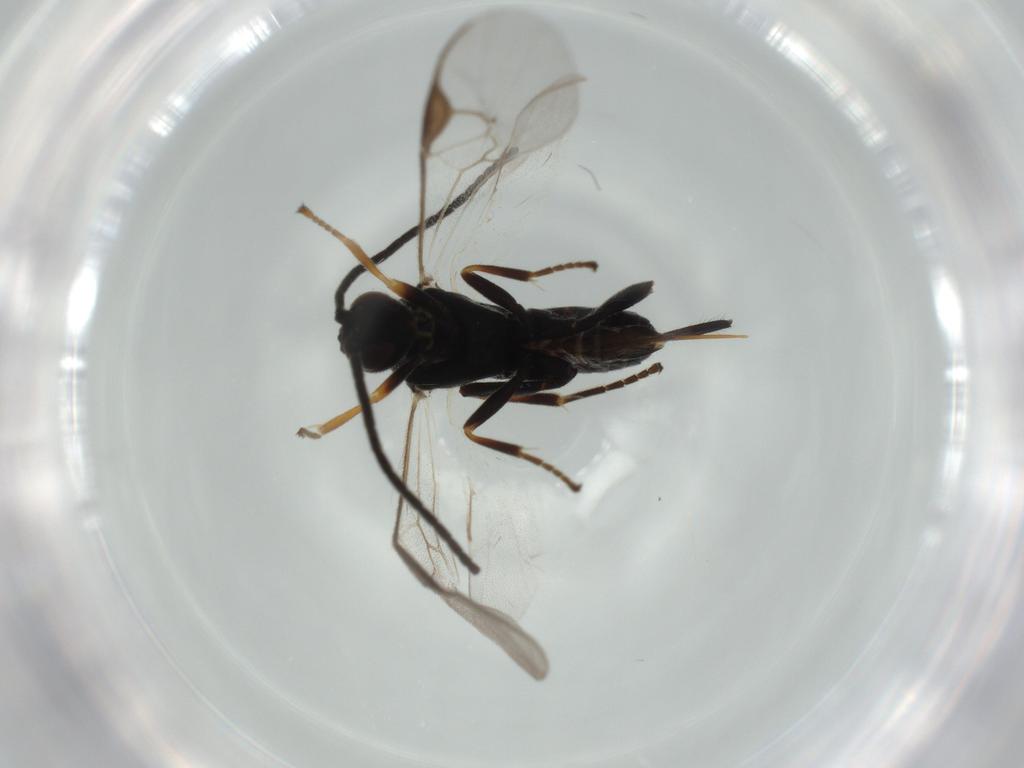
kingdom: Animalia
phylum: Arthropoda
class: Insecta
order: Hymenoptera
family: Braconidae
